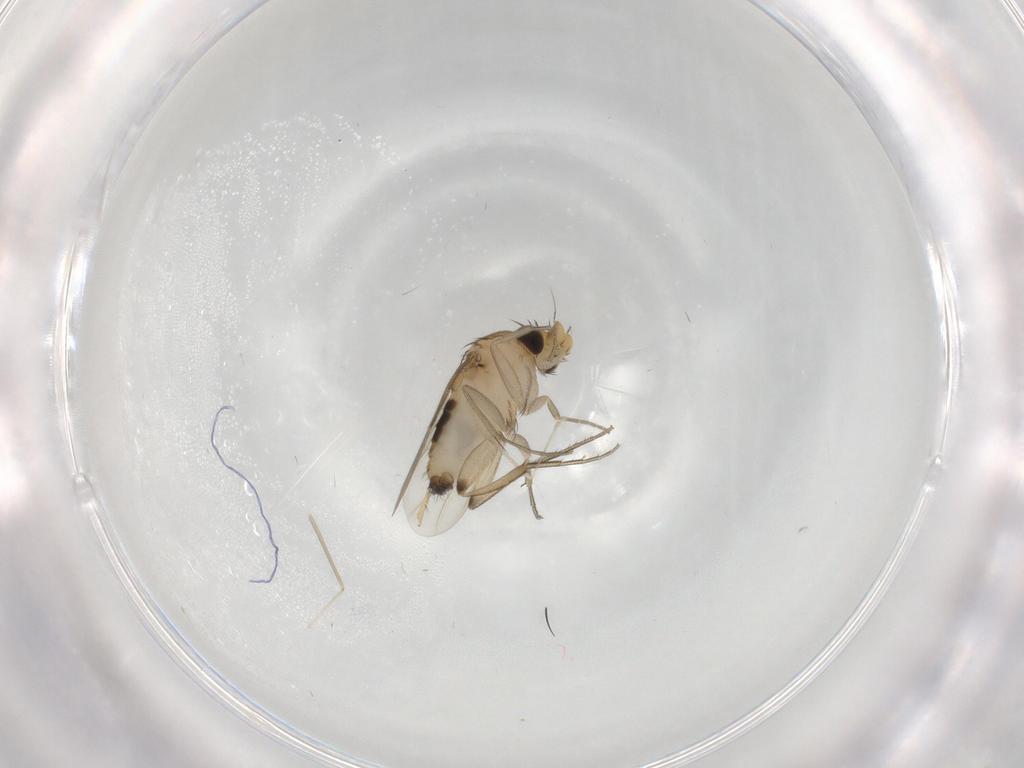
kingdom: Animalia
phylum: Arthropoda
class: Insecta
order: Diptera
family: Phoridae
